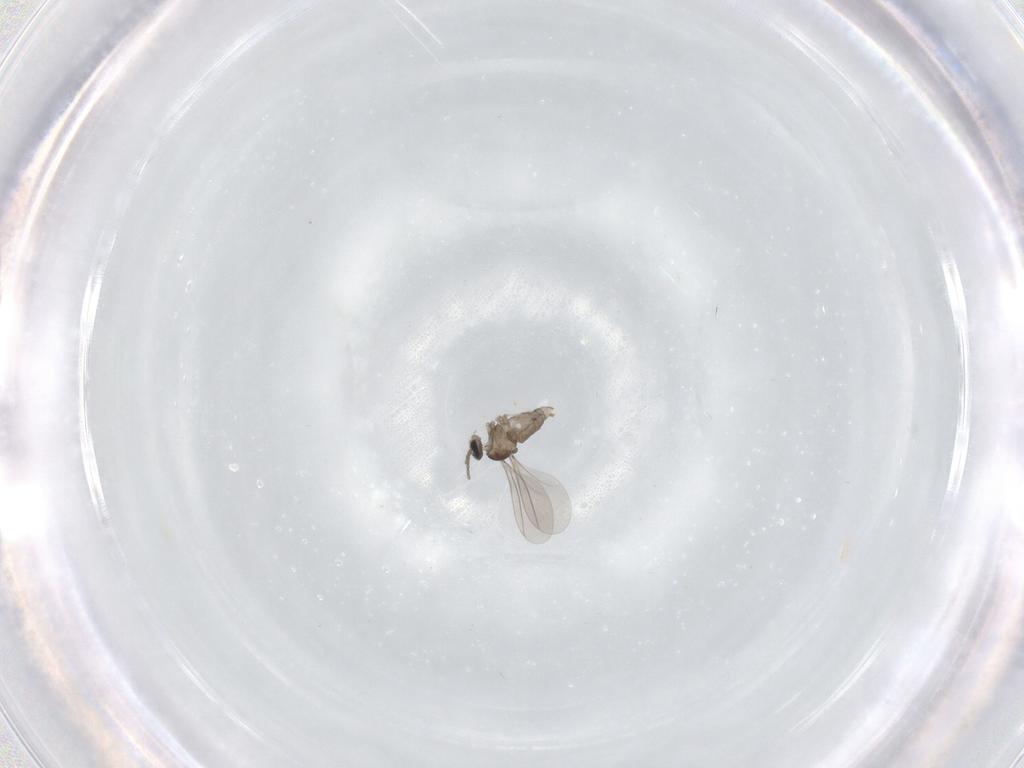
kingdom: Animalia
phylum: Arthropoda
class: Insecta
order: Diptera
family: Cecidomyiidae
